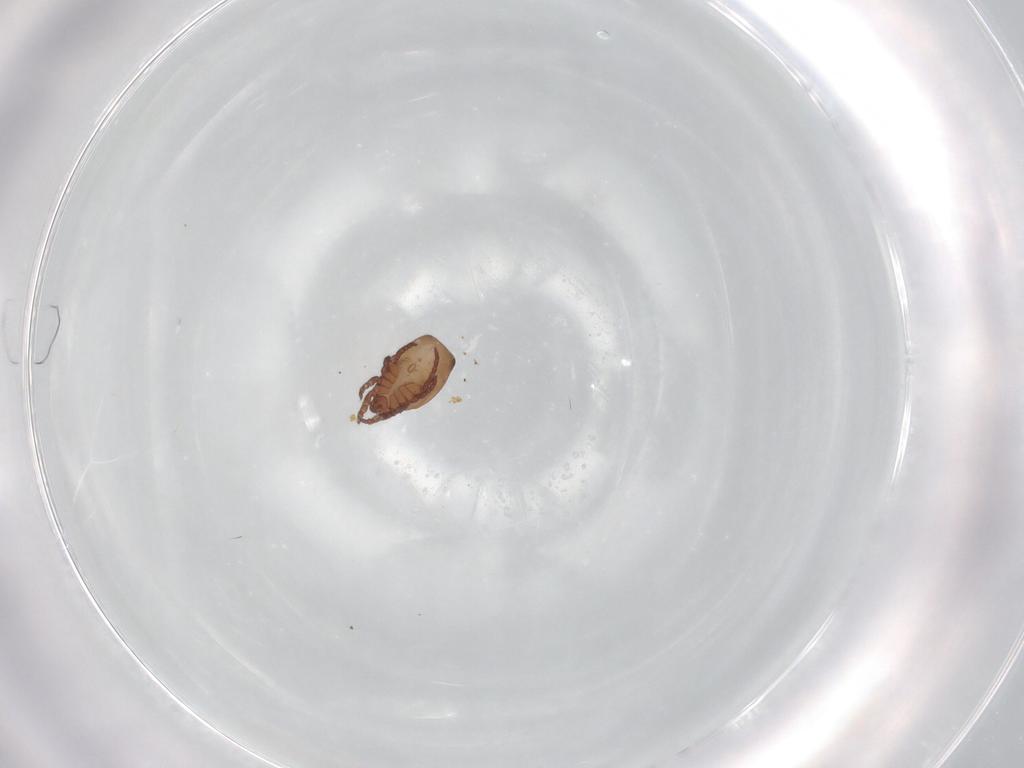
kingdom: Animalia
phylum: Arthropoda
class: Arachnida
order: Sarcoptiformes
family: Hermanniidae
